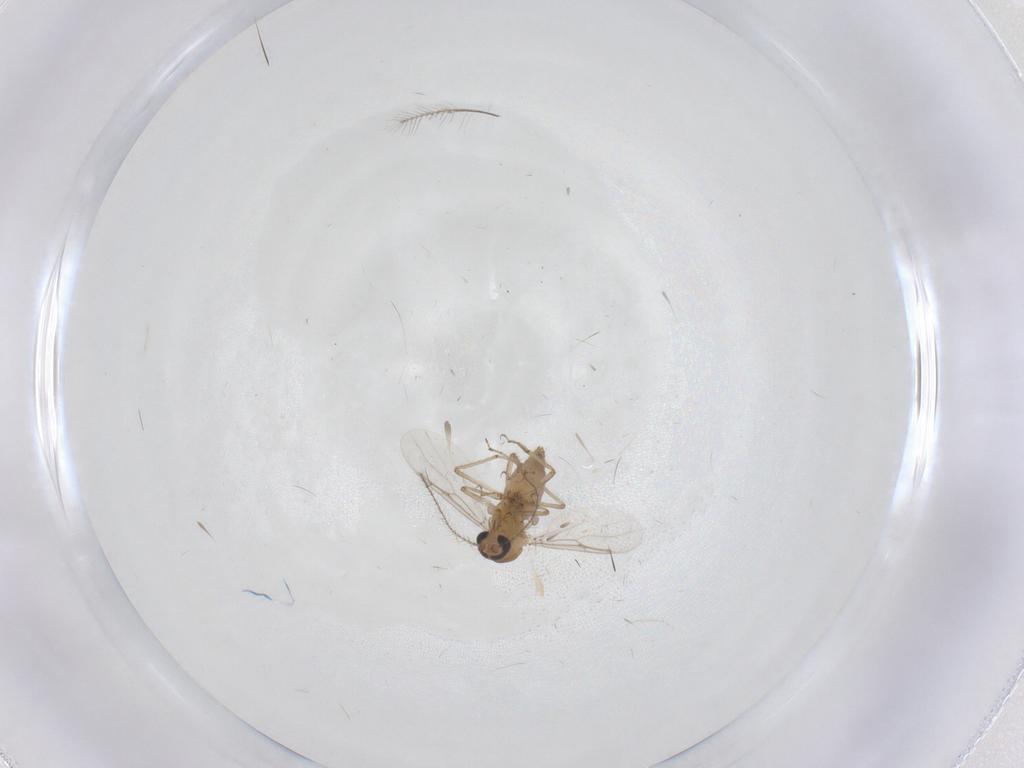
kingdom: Animalia
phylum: Arthropoda
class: Insecta
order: Diptera
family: Chironomidae
